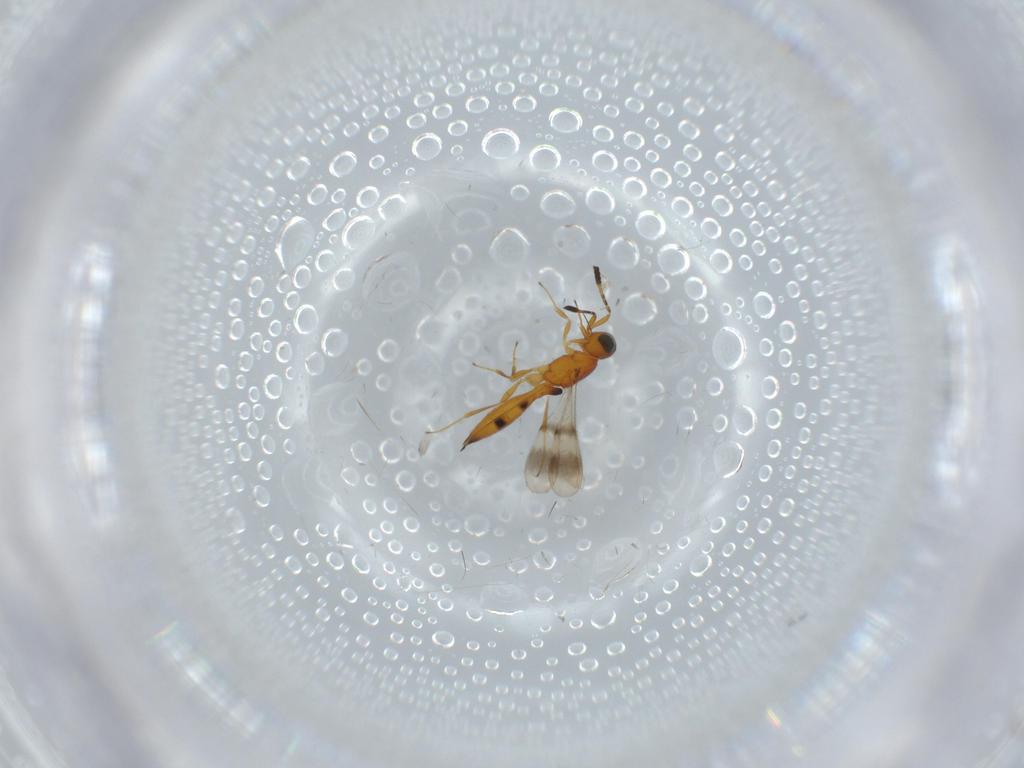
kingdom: Animalia
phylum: Arthropoda
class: Insecta
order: Hymenoptera
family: Scelionidae
